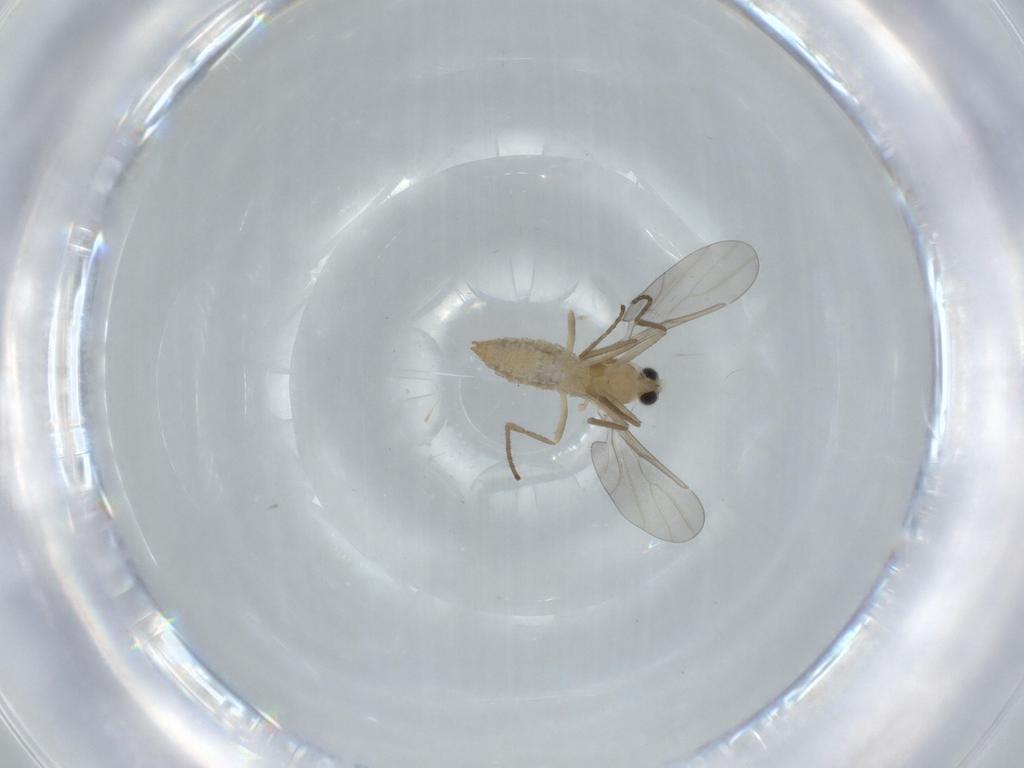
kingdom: Animalia
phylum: Arthropoda
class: Insecta
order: Diptera
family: Cecidomyiidae
